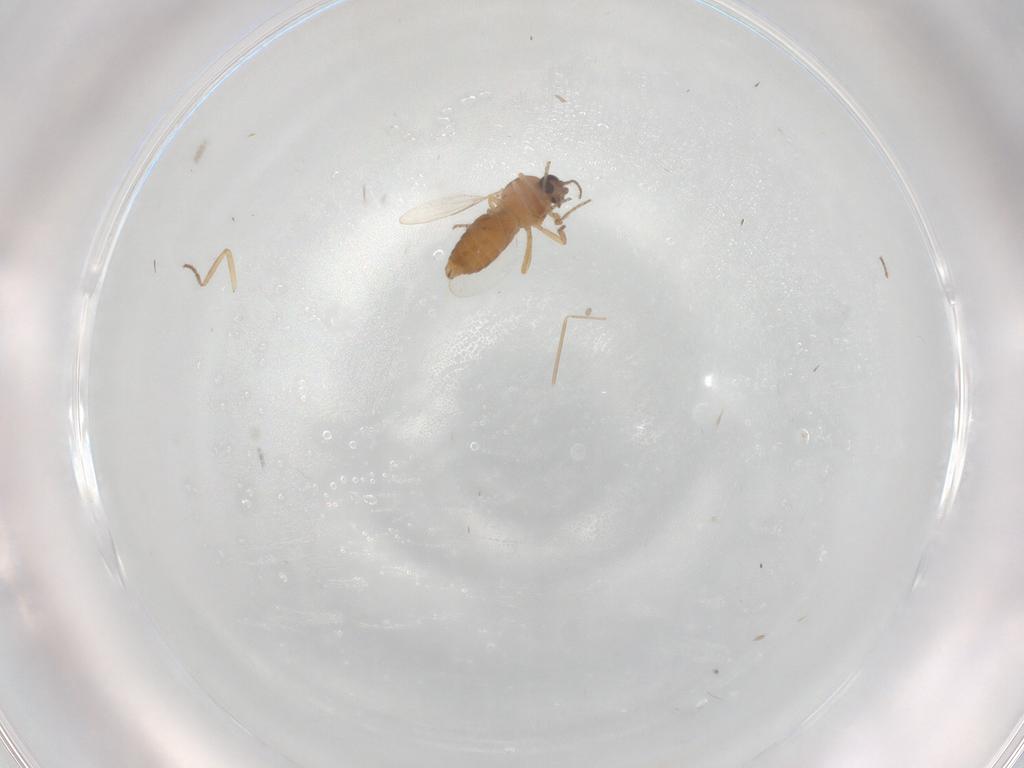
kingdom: Animalia
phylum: Arthropoda
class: Insecta
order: Diptera
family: Ceratopogonidae
